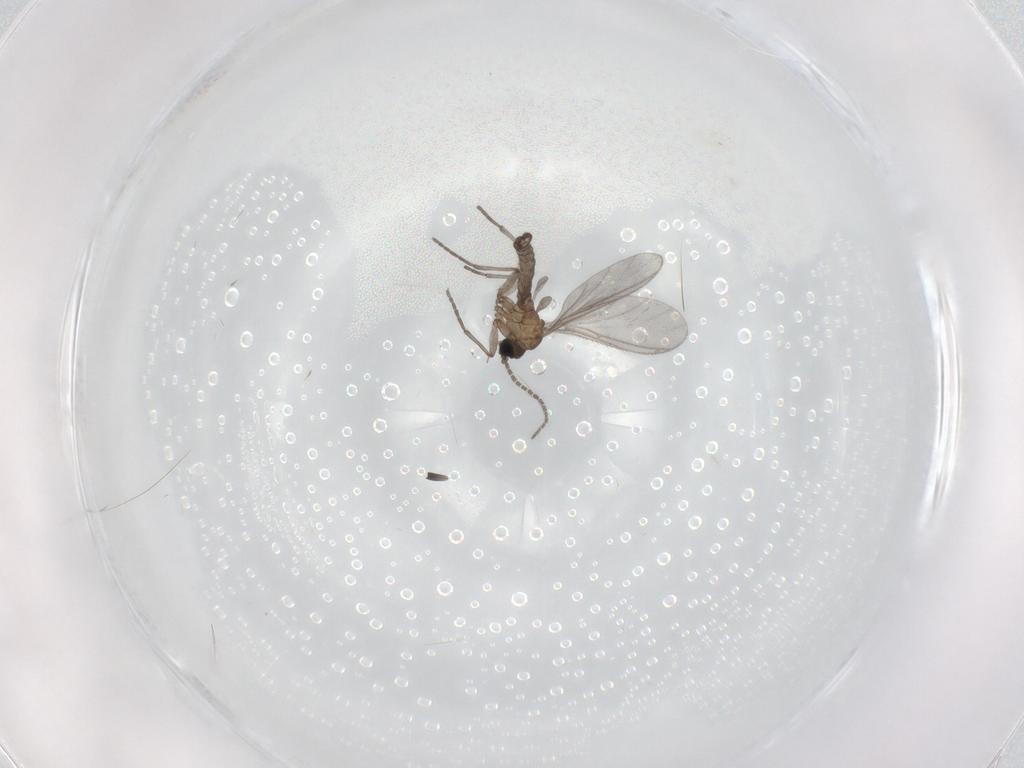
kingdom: Animalia
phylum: Arthropoda
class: Insecta
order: Diptera
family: Sciaridae
